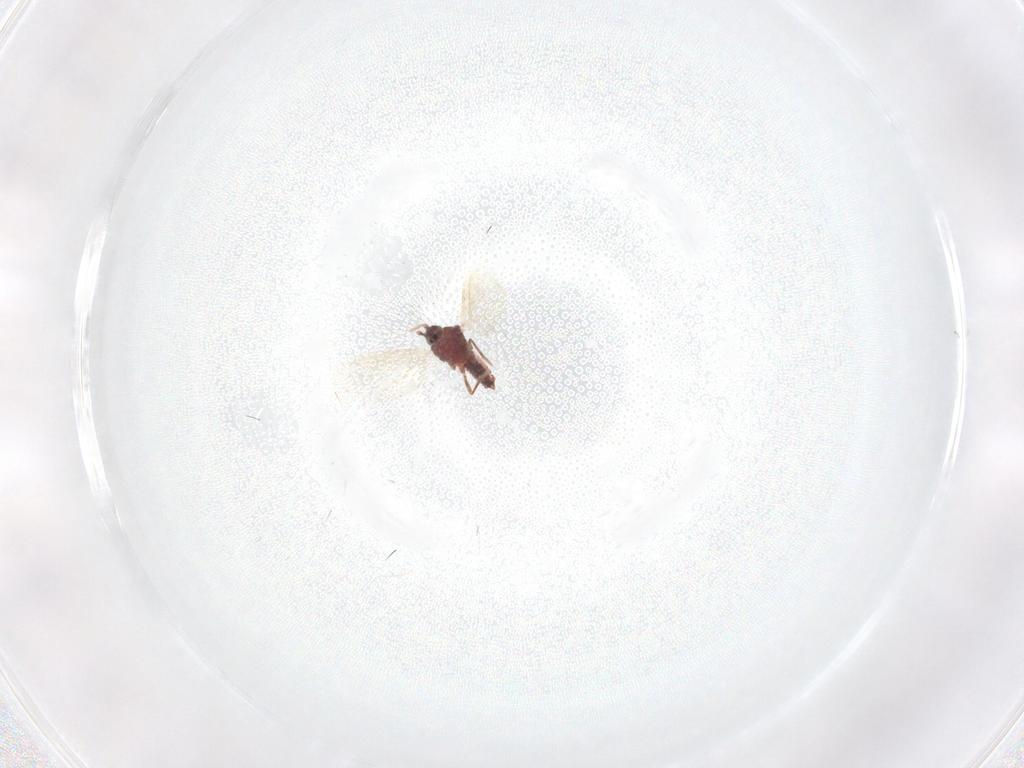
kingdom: Animalia
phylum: Arthropoda
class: Insecta
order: Hemiptera
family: Coccoidea_incertae_sedis
